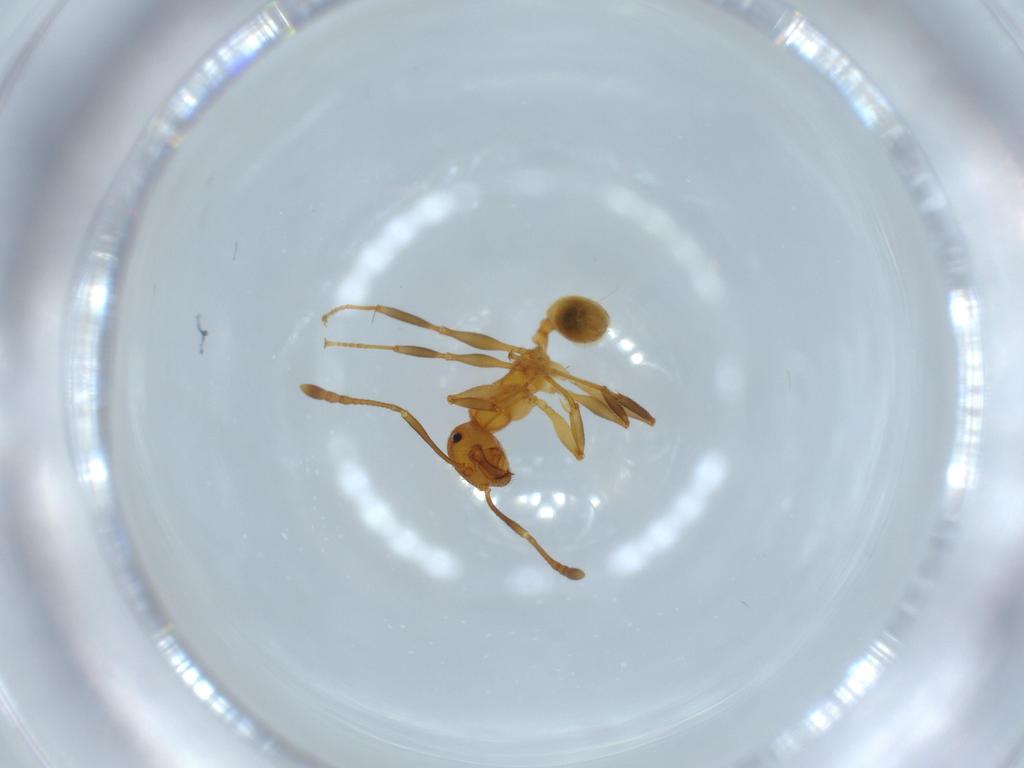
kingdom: Animalia
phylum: Arthropoda
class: Insecta
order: Hymenoptera
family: Formicidae
